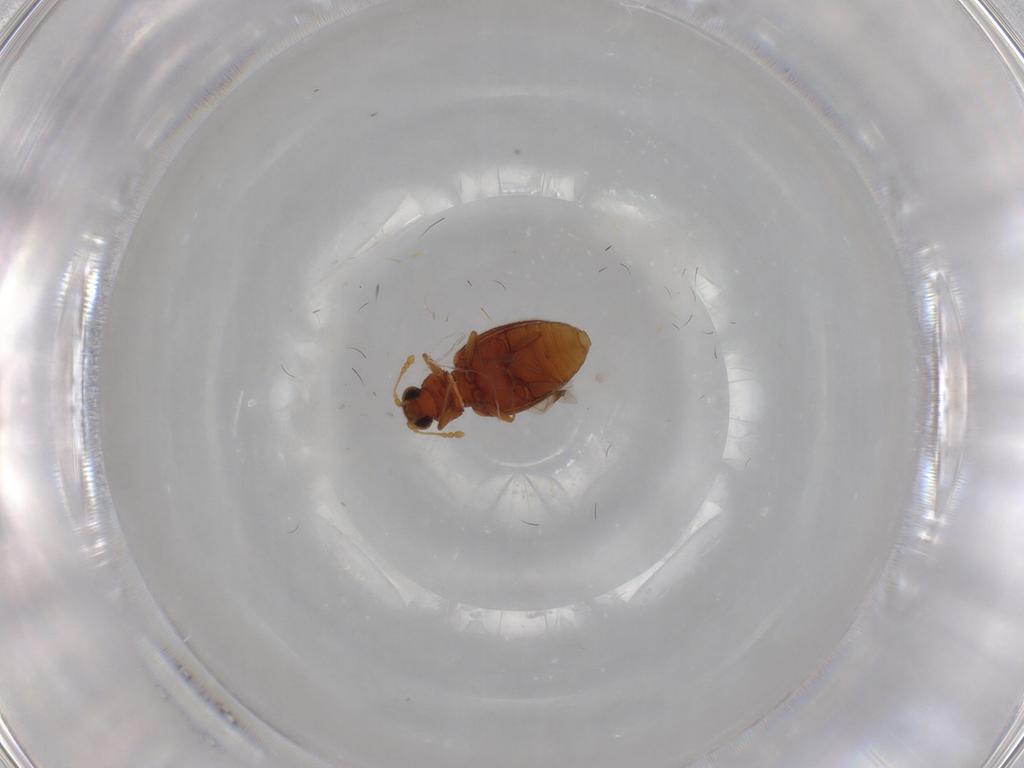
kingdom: Animalia
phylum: Arthropoda
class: Insecta
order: Coleoptera
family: Latridiidae
